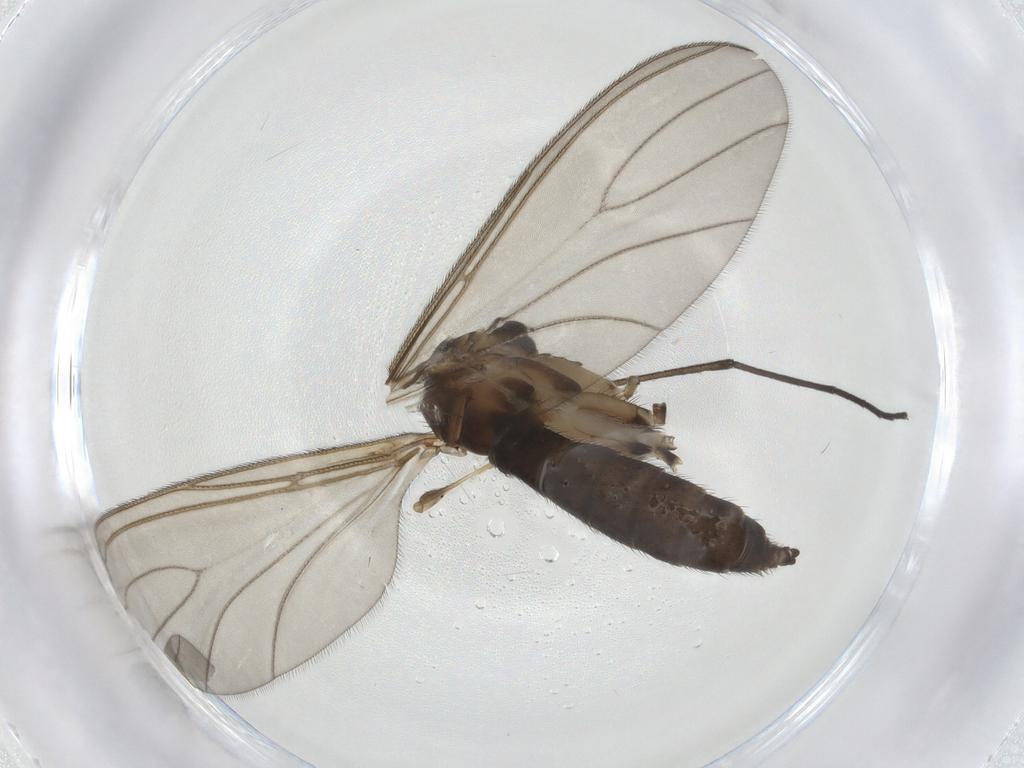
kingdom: Animalia
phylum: Arthropoda
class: Insecta
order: Diptera
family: Sciaridae
